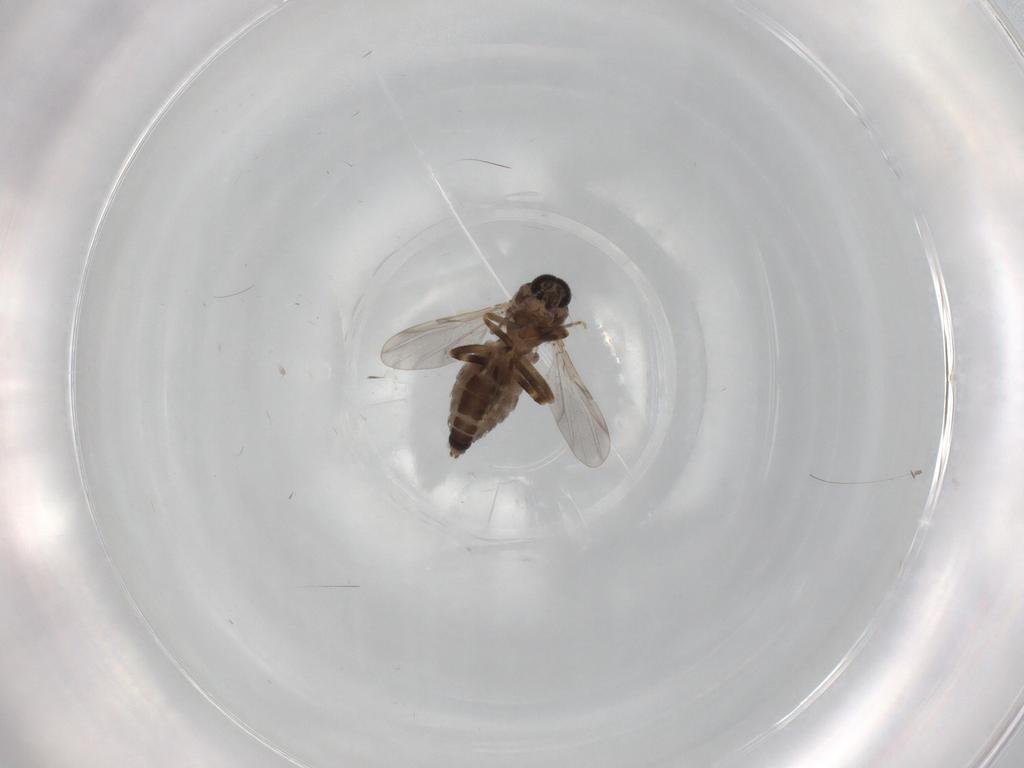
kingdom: Animalia
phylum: Arthropoda
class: Insecta
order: Diptera
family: Ceratopogonidae
